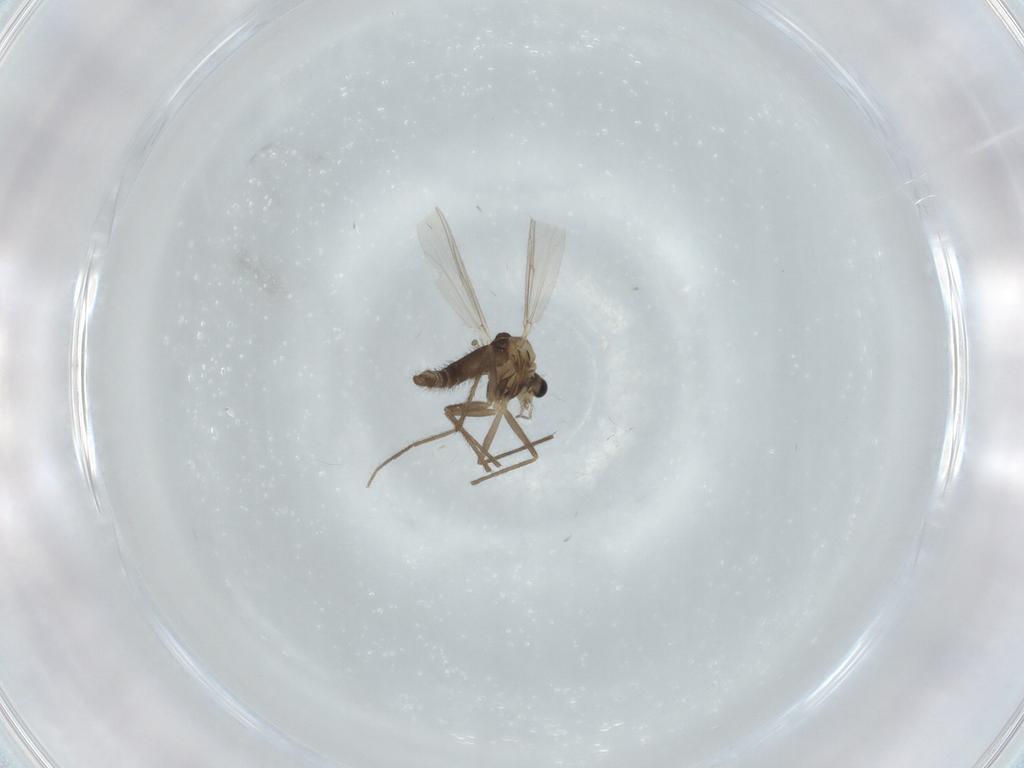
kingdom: Animalia
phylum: Arthropoda
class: Insecta
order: Diptera
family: Chironomidae
